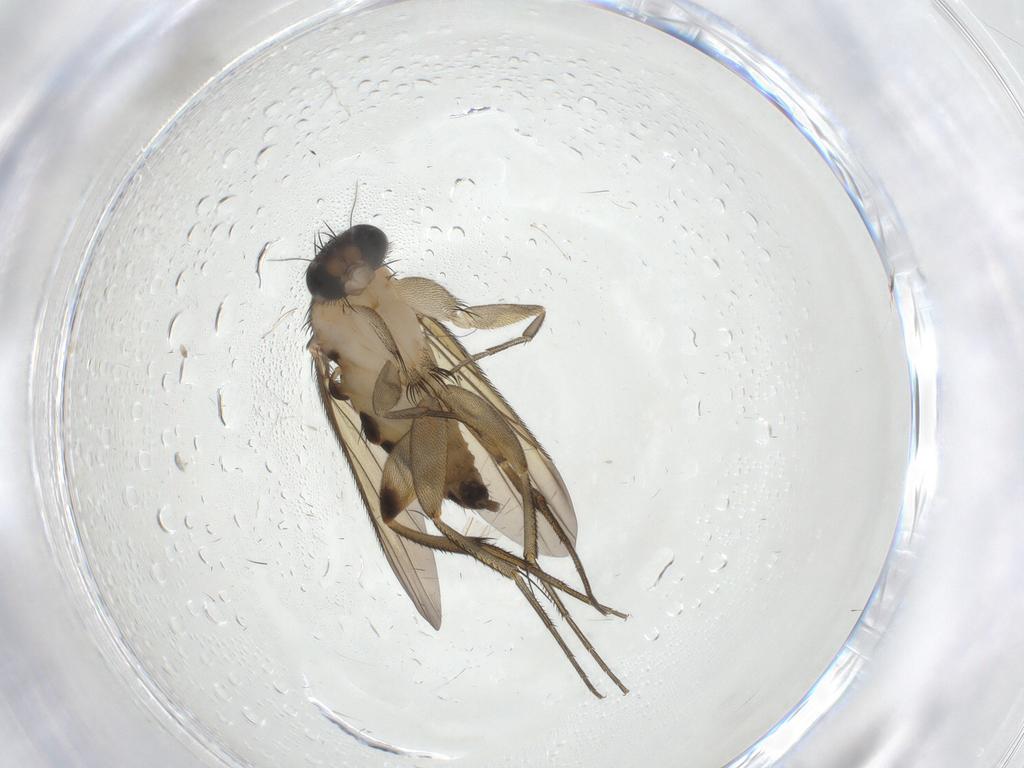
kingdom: Animalia
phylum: Arthropoda
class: Insecta
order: Diptera
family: Phoridae
